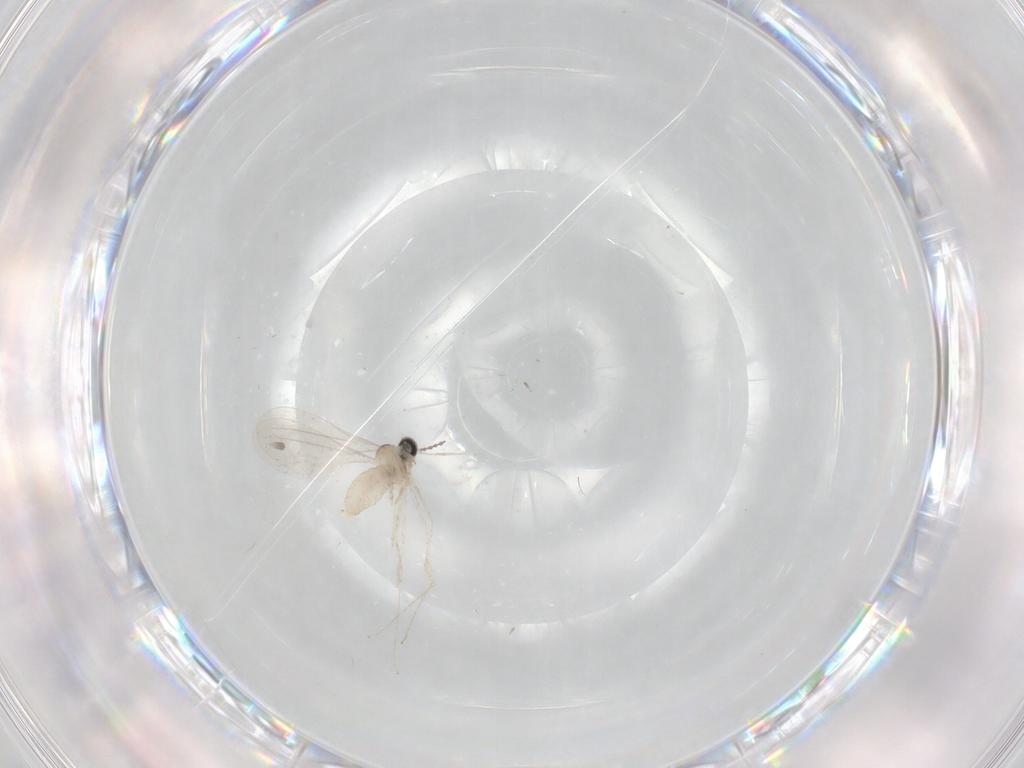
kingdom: Animalia
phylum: Arthropoda
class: Insecta
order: Diptera
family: Cecidomyiidae
